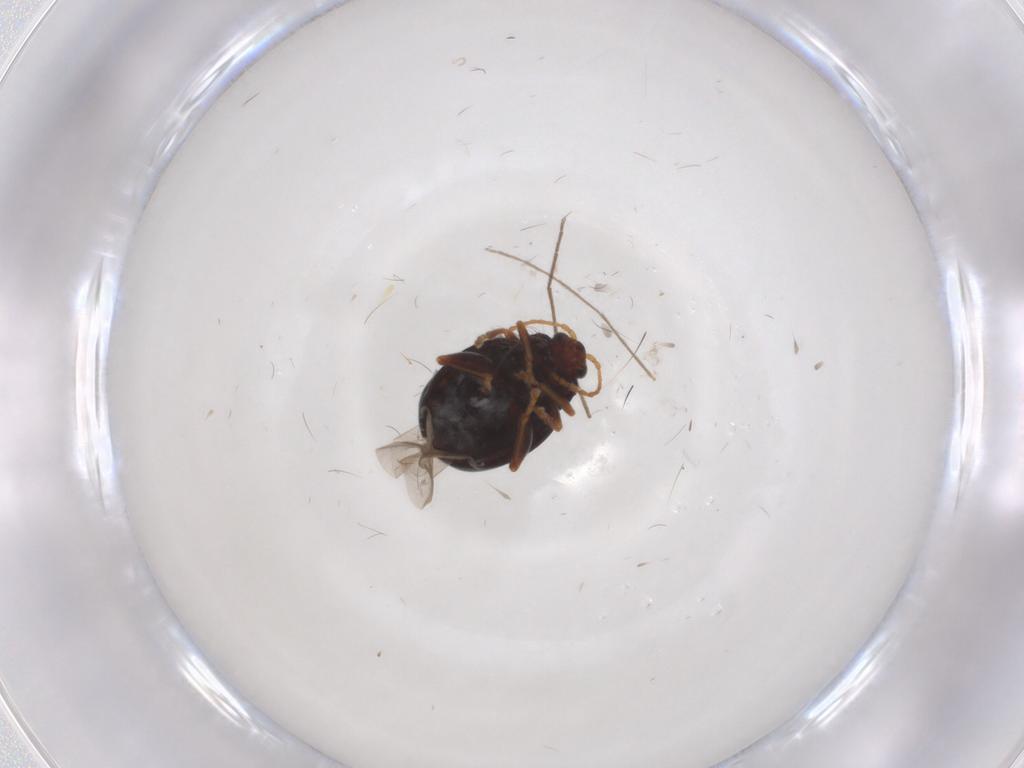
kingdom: Animalia
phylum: Arthropoda
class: Insecta
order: Coleoptera
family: Chrysomelidae
